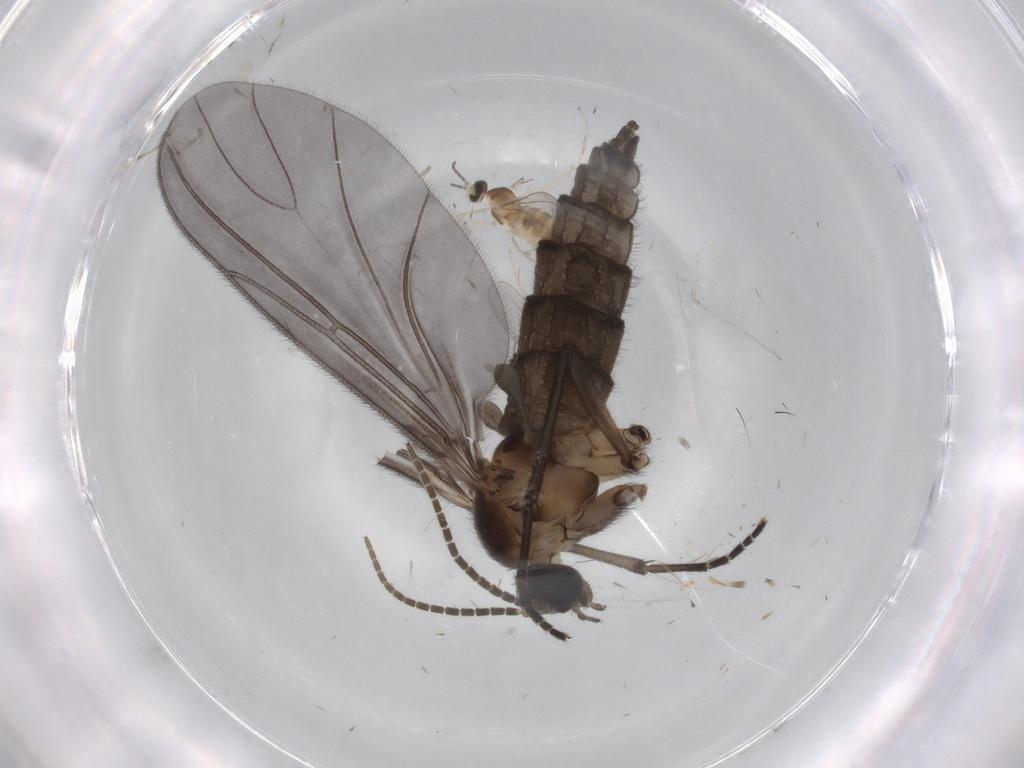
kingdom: Animalia
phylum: Arthropoda
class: Insecta
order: Diptera
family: Cecidomyiidae
